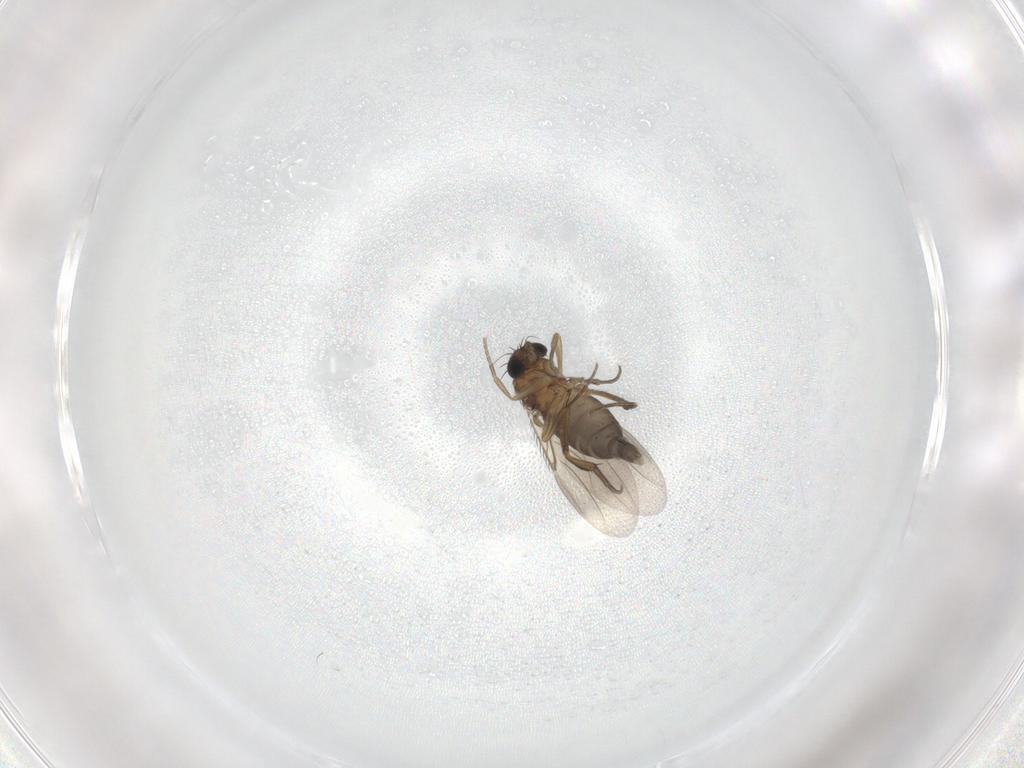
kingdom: Animalia
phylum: Arthropoda
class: Insecta
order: Diptera
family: Phoridae
